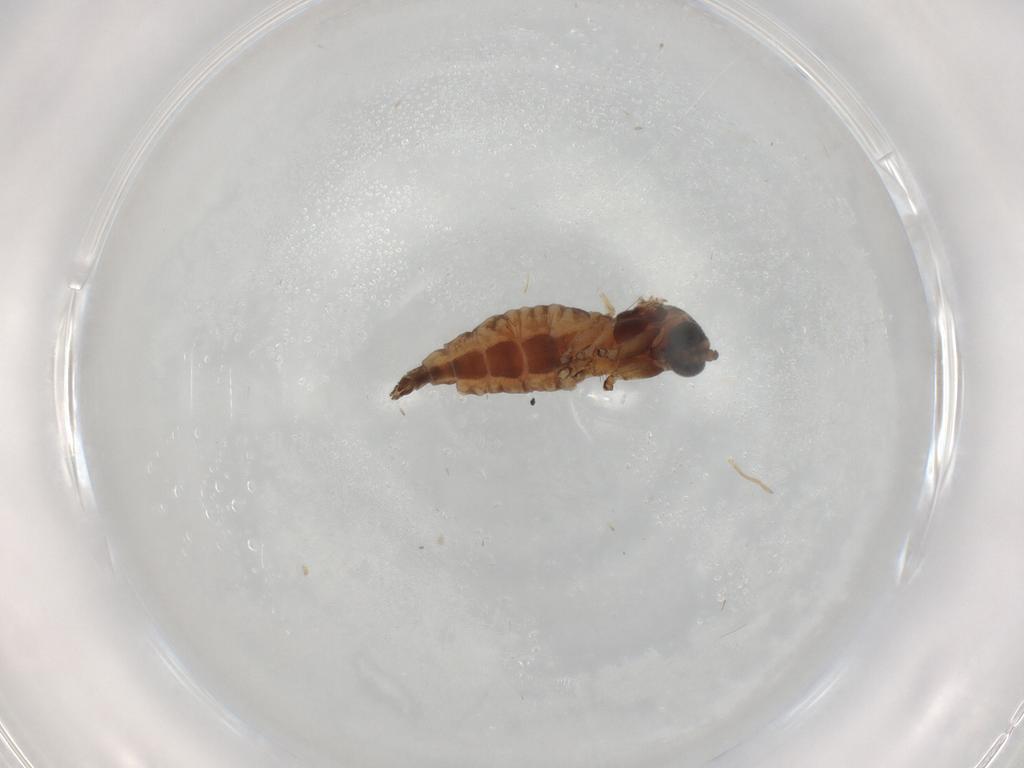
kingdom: Animalia
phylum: Arthropoda
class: Insecta
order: Diptera
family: Sciaridae
